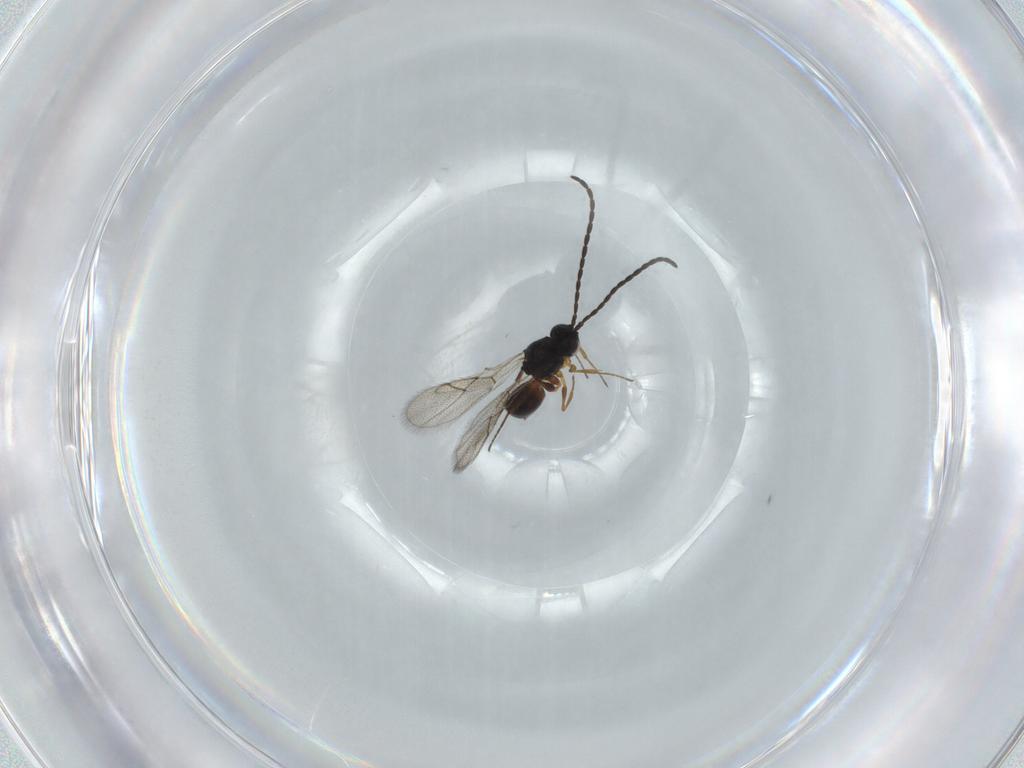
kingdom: Animalia
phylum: Arthropoda
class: Insecta
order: Hymenoptera
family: Figitidae
